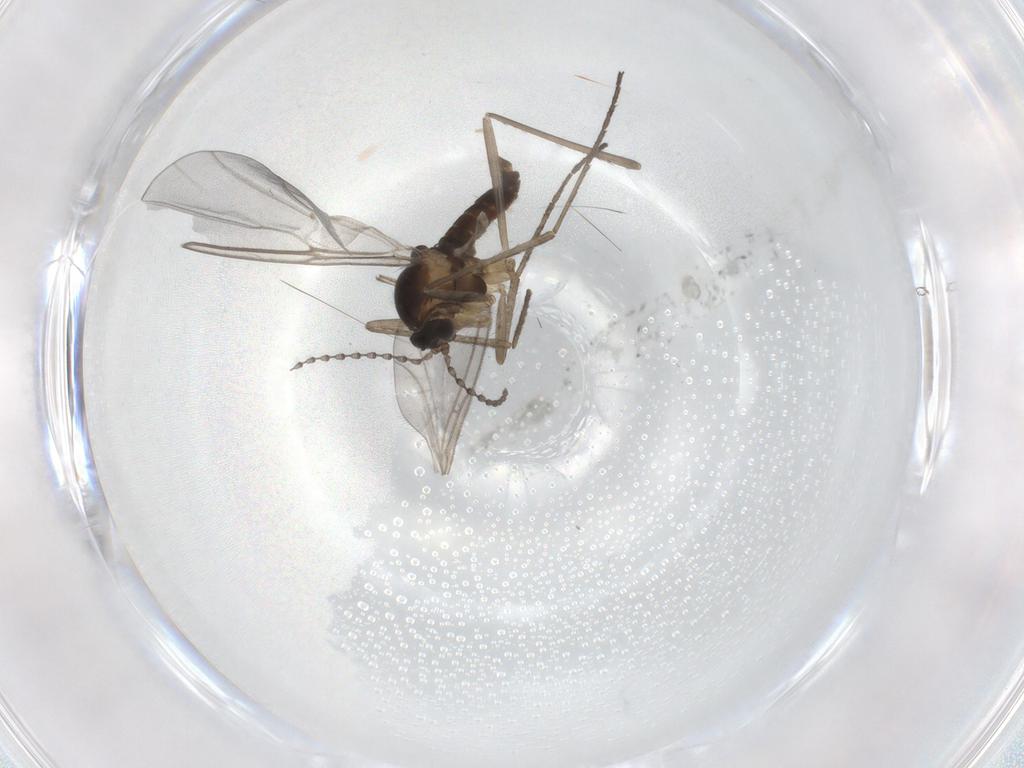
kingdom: Animalia
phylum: Arthropoda
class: Insecta
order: Diptera
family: Cecidomyiidae
